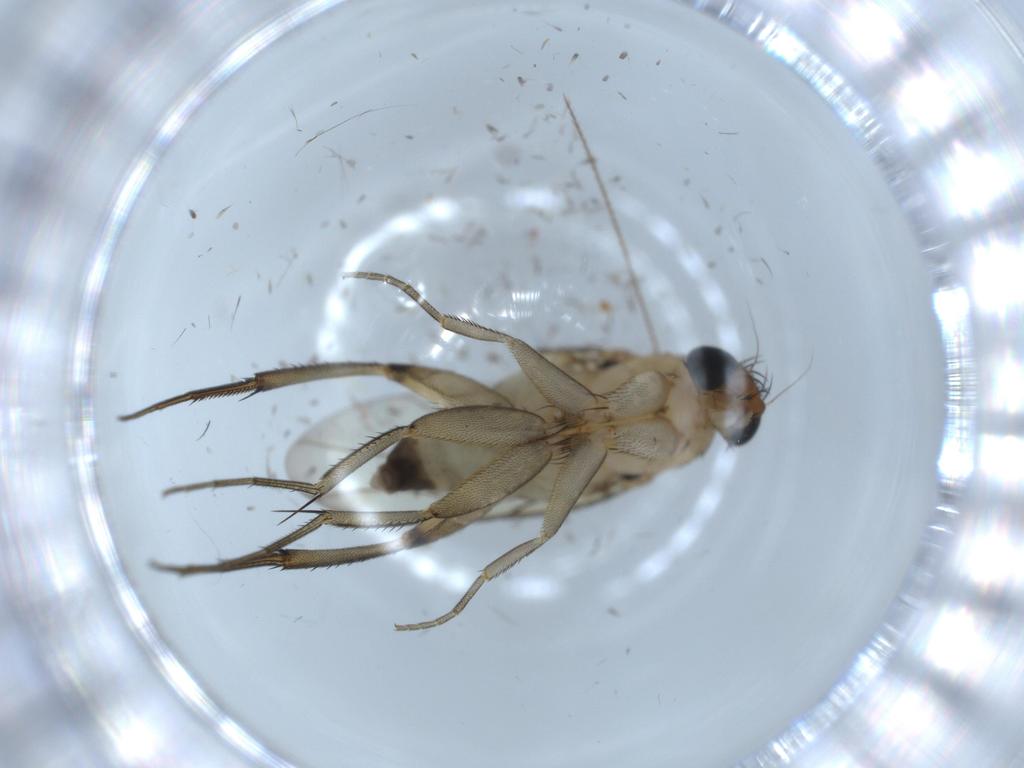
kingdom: Animalia
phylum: Arthropoda
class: Insecta
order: Diptera
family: Phoridae
